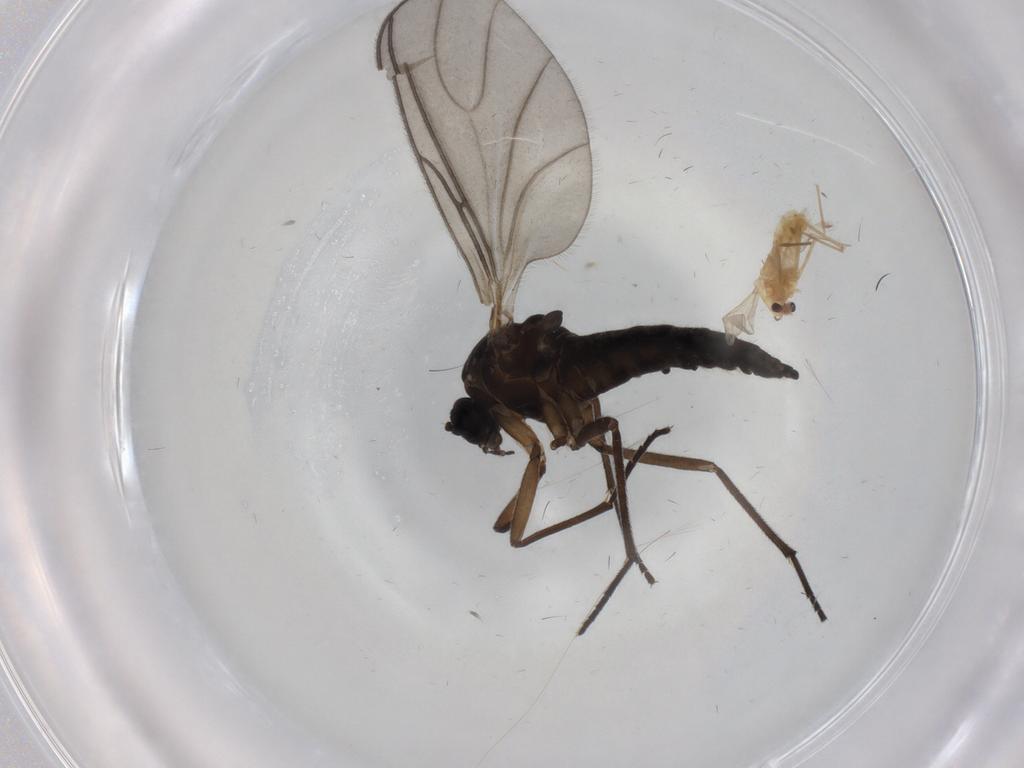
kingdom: Animalia
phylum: Arthropoda
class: Insecta
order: Diptera
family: Chironomidae
